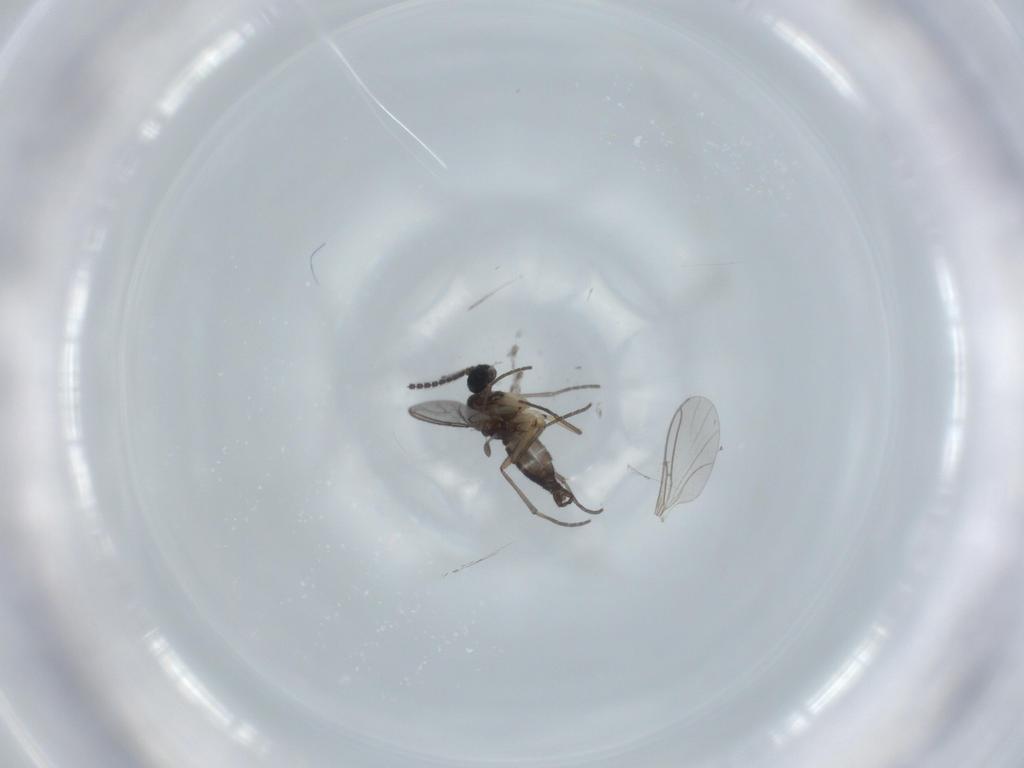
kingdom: Animalia
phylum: Arthropoda
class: Insecta
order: Diptera
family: Sciaridae
